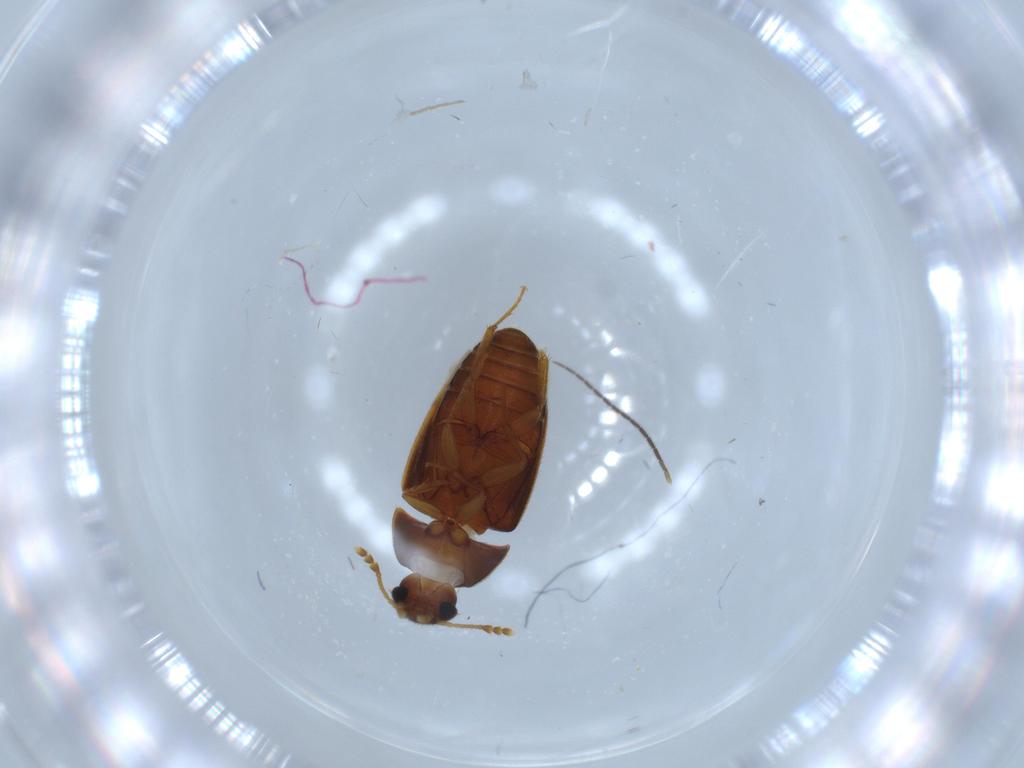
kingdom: Animalia
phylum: Arthropoda
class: Insecta
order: Coleoptera
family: Mycetophagidae
